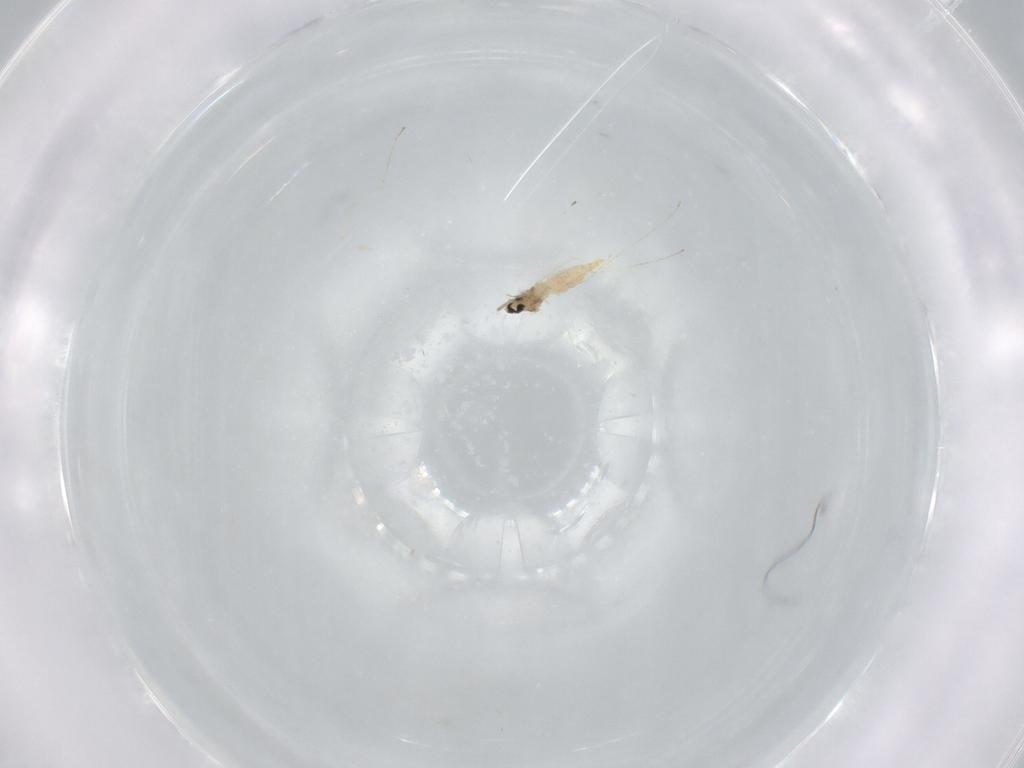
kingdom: Animalia
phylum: Arthropoda
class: Insecta
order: Diptera
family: Cecidomyiidae
